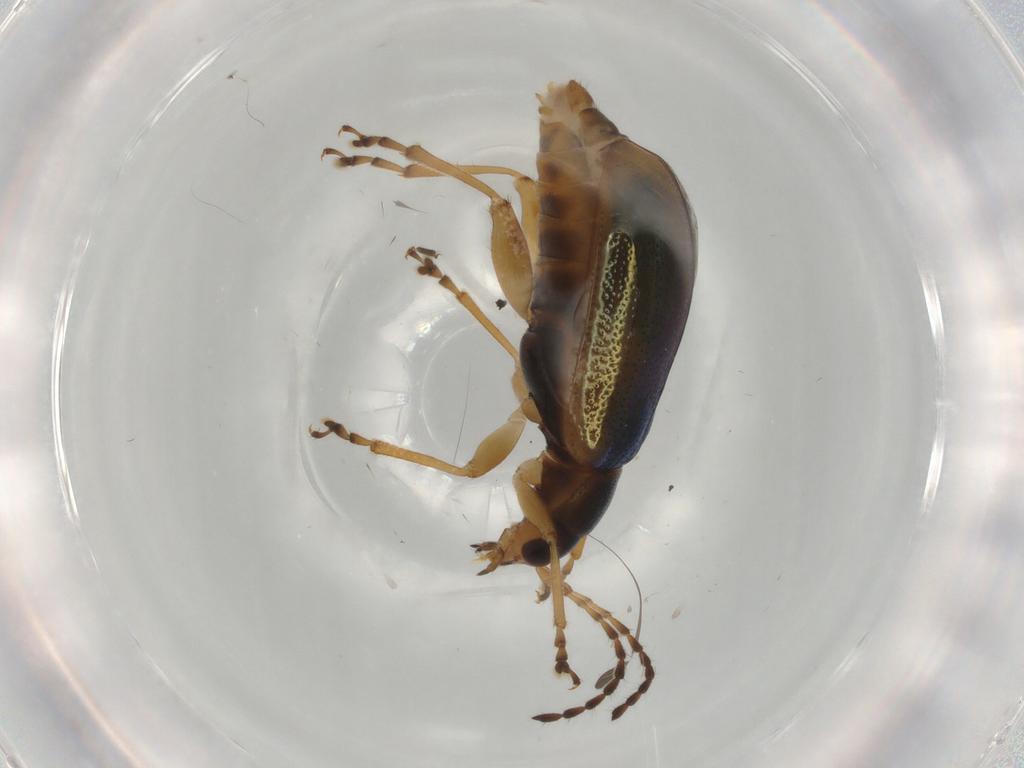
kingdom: Animalia
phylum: Arthropoda
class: Insecta
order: Coleoptera
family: Chrysomelidae
